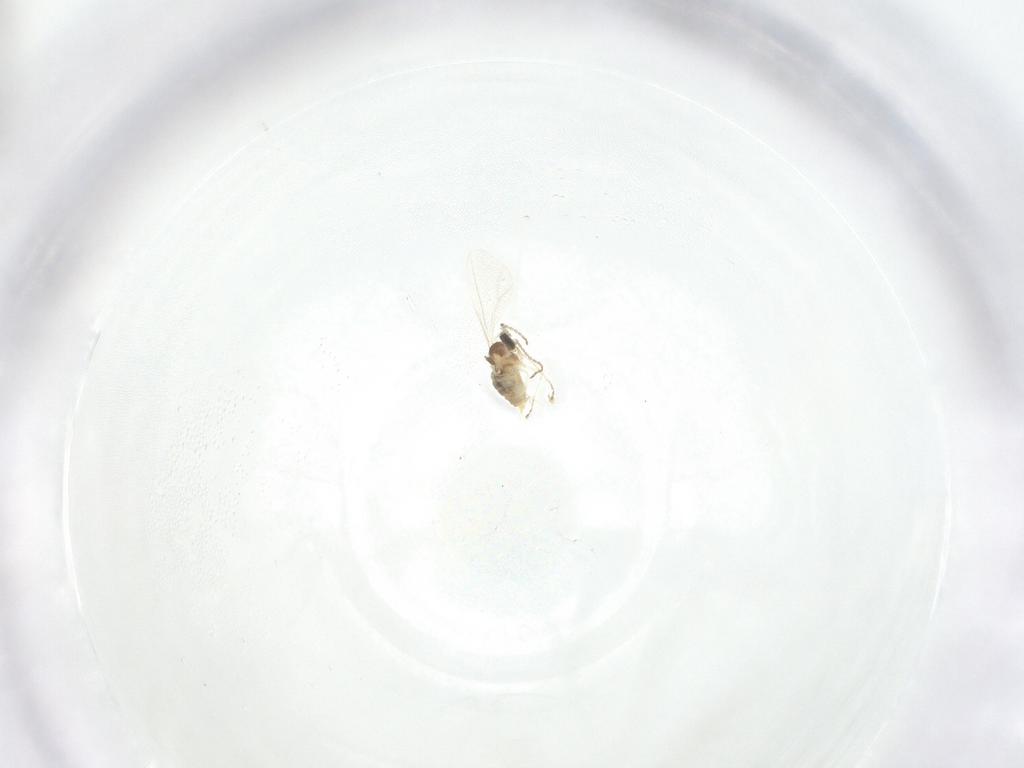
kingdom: Animalia
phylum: Arthropoda
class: Insecta
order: Diptera
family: Cecidomyiidae
